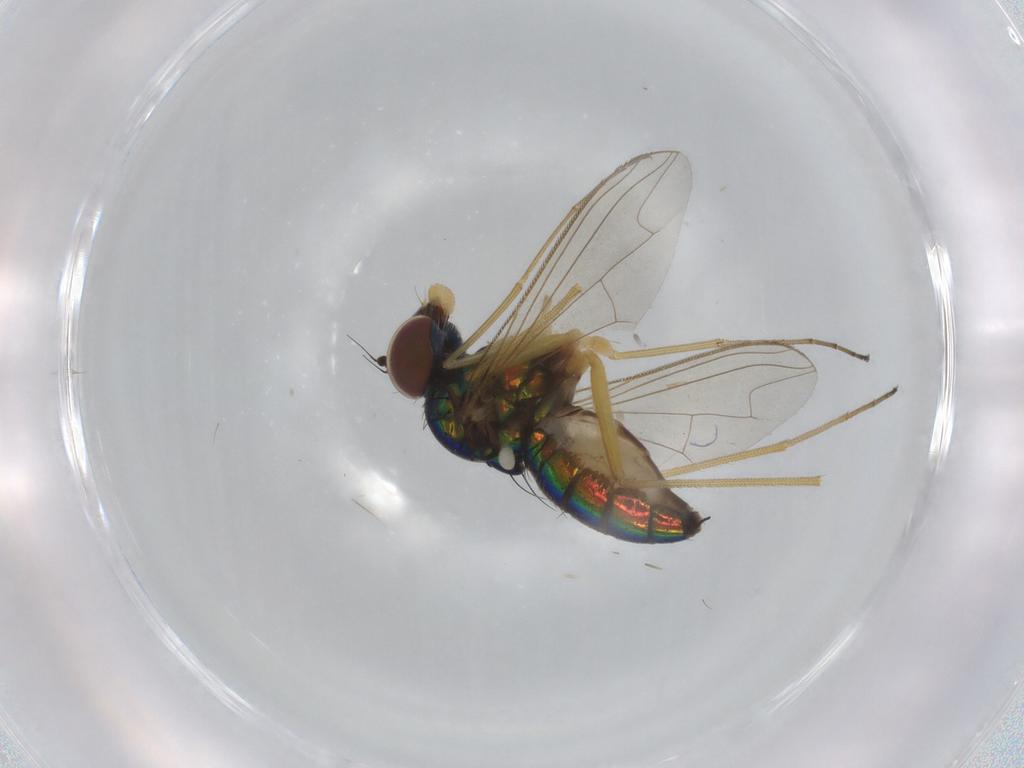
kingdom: Animalia
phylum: Arthropoda
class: Insecta
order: Diptera
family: Dolichopodidae
